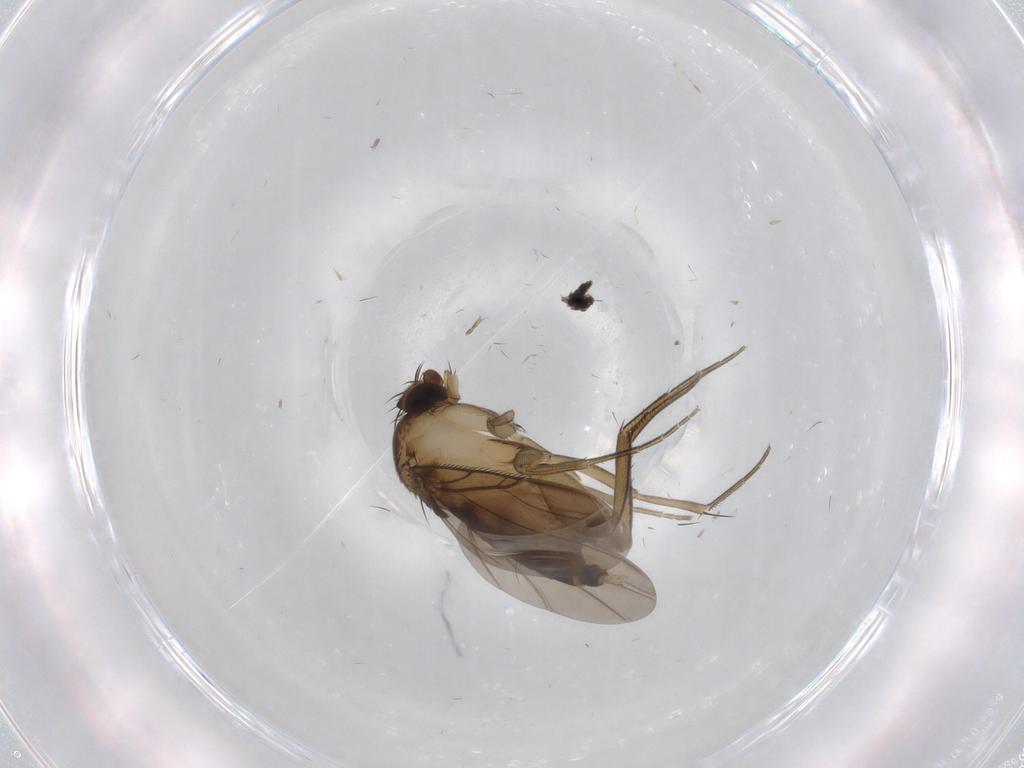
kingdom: Animalia
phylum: Arthropoda
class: Insecta
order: Diptera
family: Phoridae
